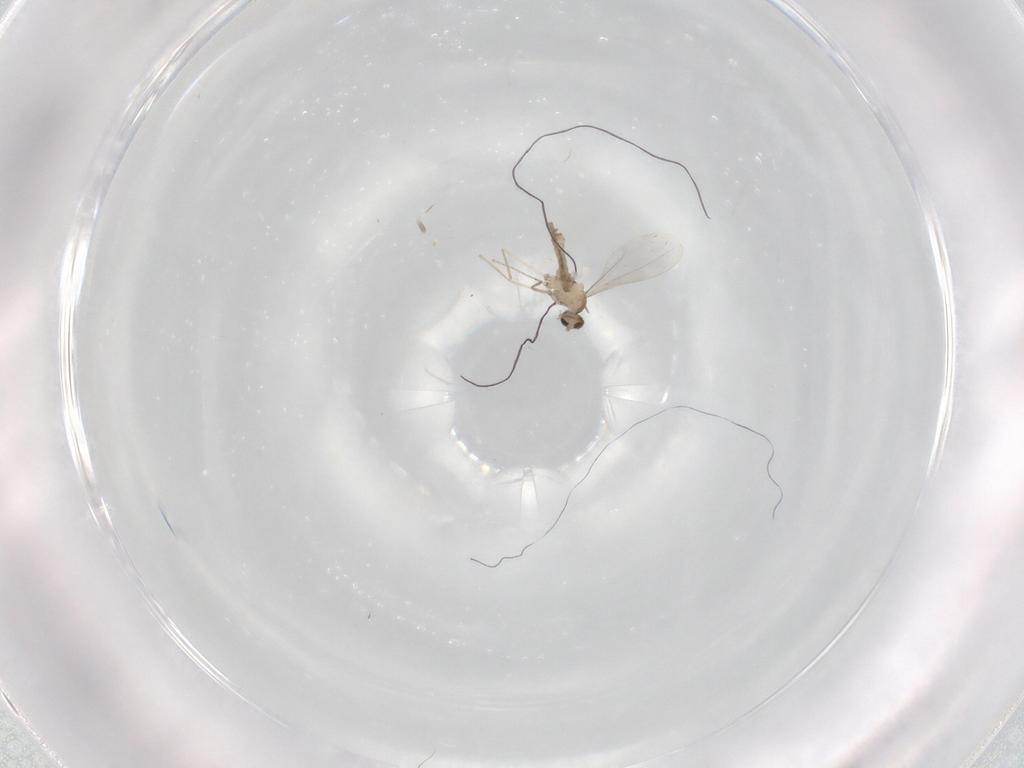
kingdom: Animalia
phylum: Arthropoda
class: Insecta
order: Diptera
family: Cecidomyiidae
